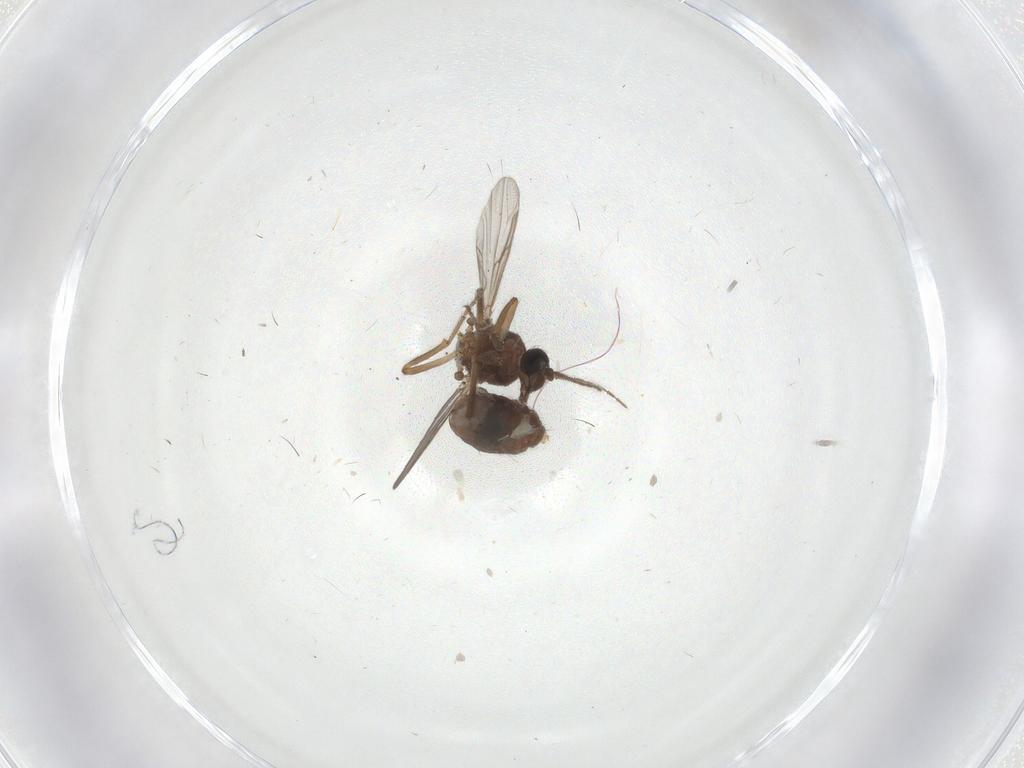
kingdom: Animalia
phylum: Arthropoda
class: Insecta
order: Diptera
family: Ceratopogonidae
